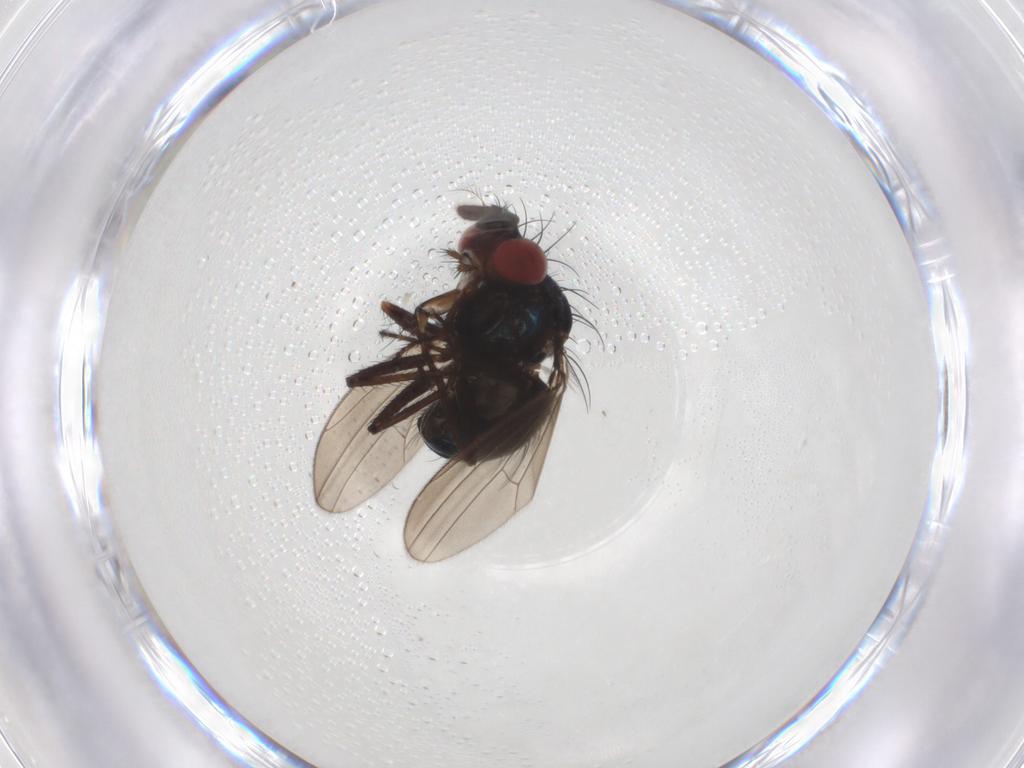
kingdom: Animalia
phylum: Arthropoda
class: Insecta
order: Diptera
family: Ephydridae
